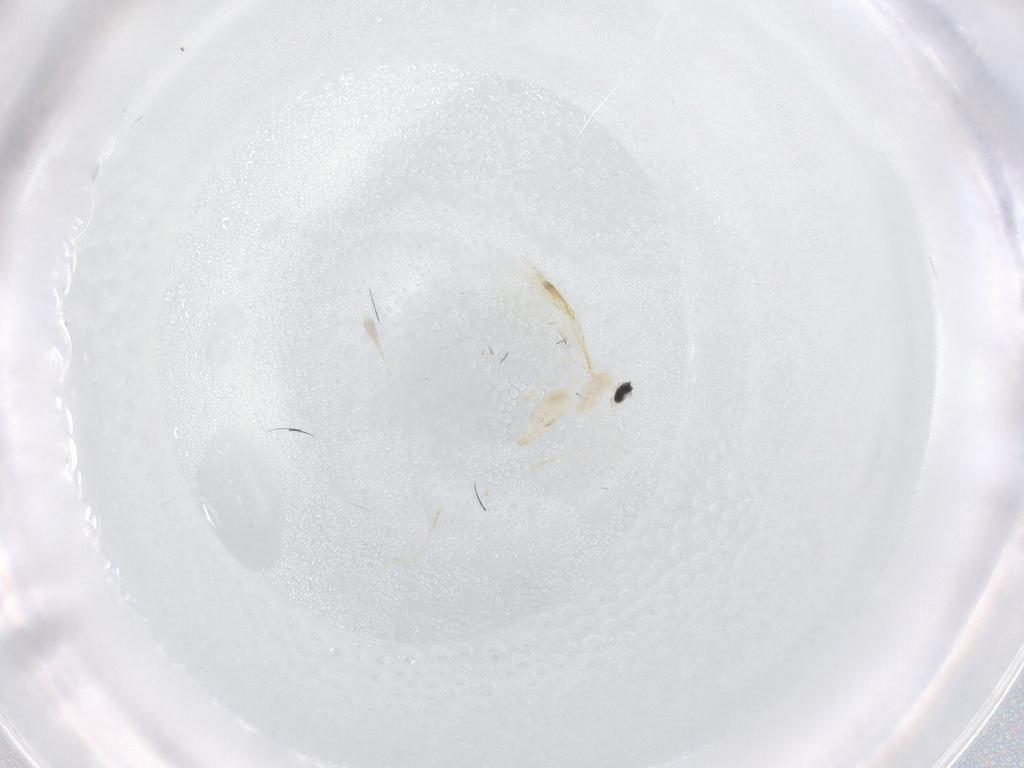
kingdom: Animalia
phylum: Arthropoda
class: Insecta
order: Diptera
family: Cecidomyiidae
